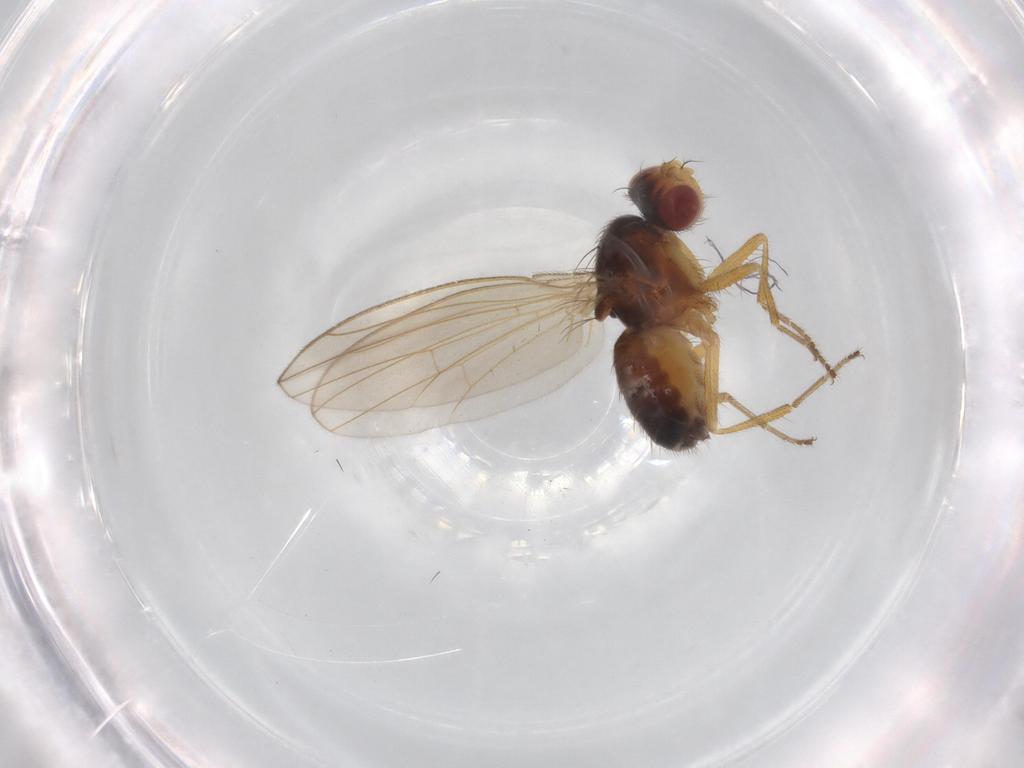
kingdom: Animalia
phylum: Arthropoda
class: Insecta
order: Diptera
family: Drosophilidae
